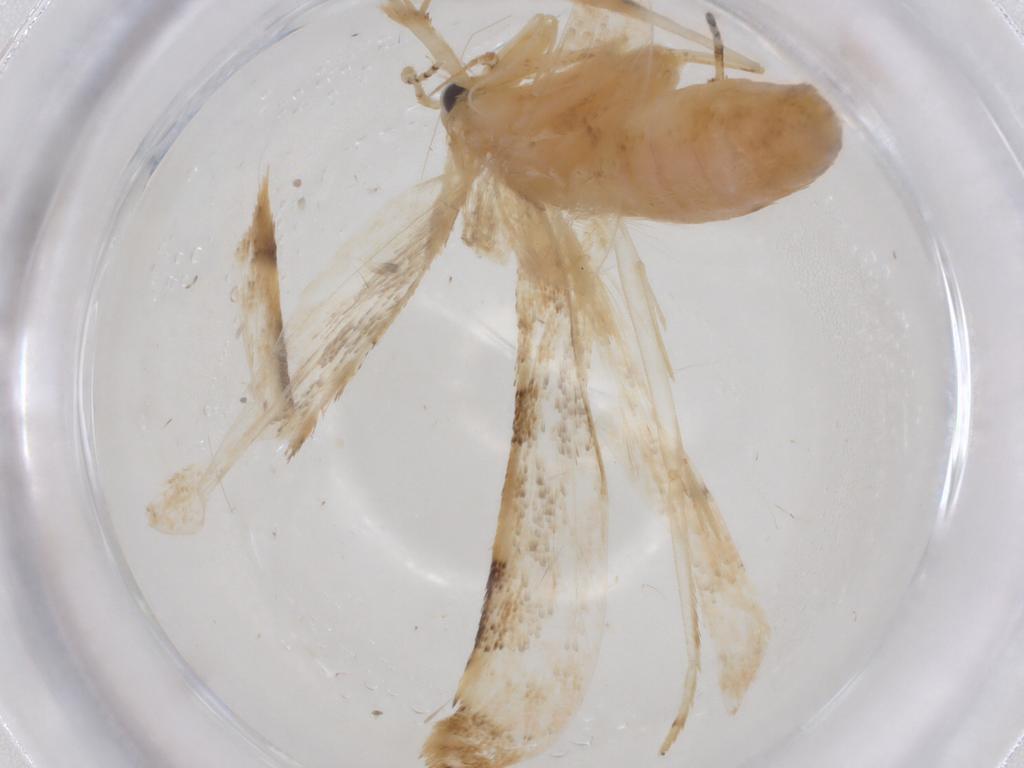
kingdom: Animalia
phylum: Arthropoda
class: Insecta
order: Lepidoptera
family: Geometridae
